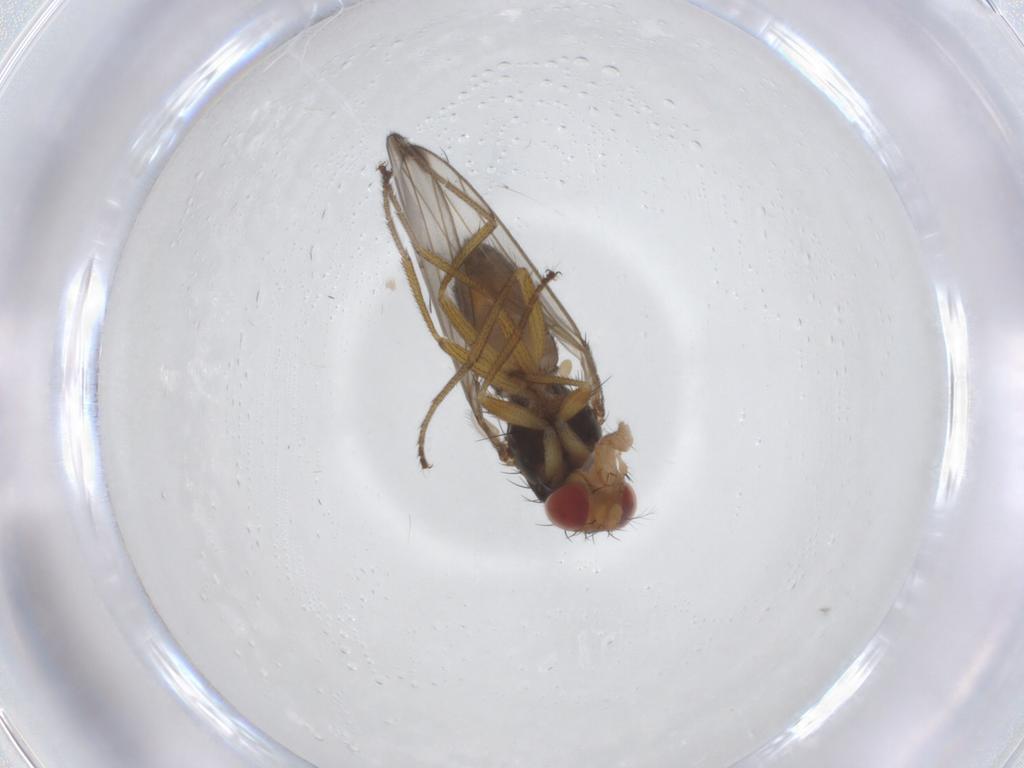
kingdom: Animalia
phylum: Arthropoda
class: Insecta
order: Diptera
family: Drosophilidae
